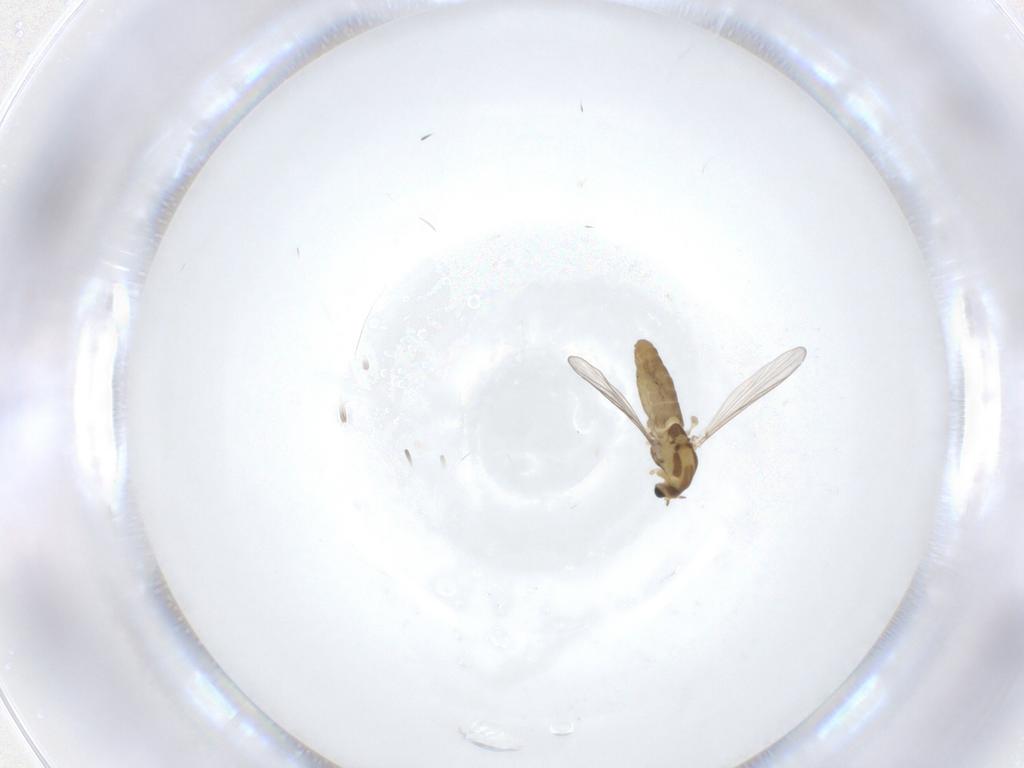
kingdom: Animalia
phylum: Arthropoda
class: Insecta
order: Diptera
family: Chironomidae
